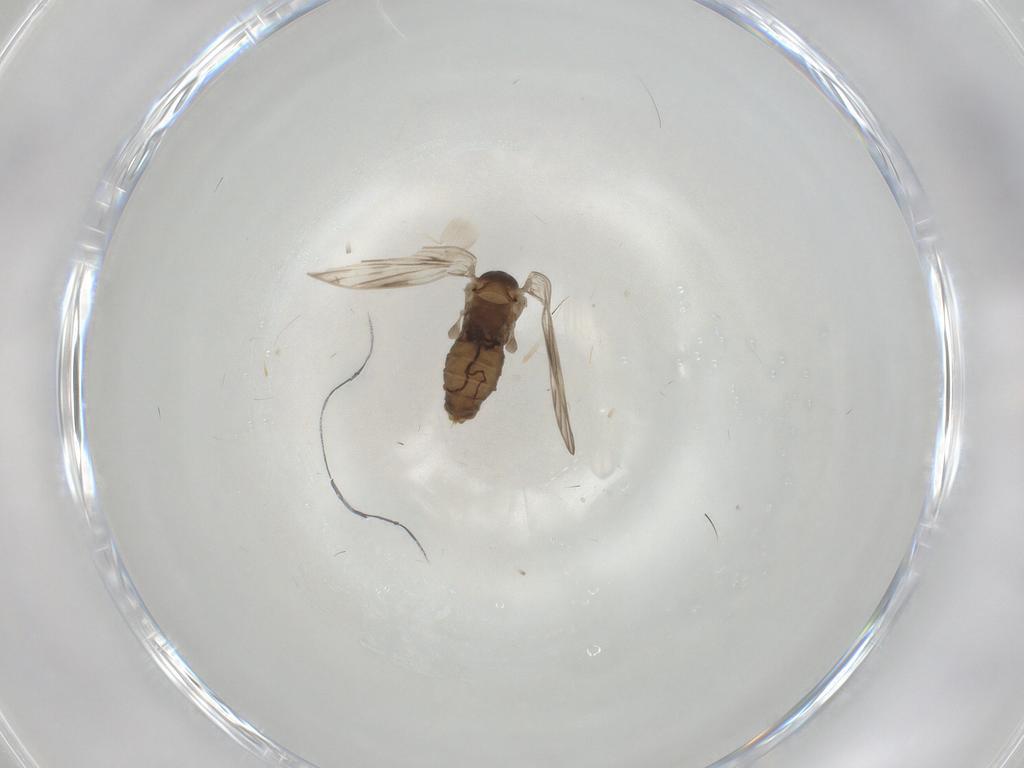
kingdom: Animalia
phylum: Arthropoda
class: Insecta
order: Diptera
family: Psychodidae
